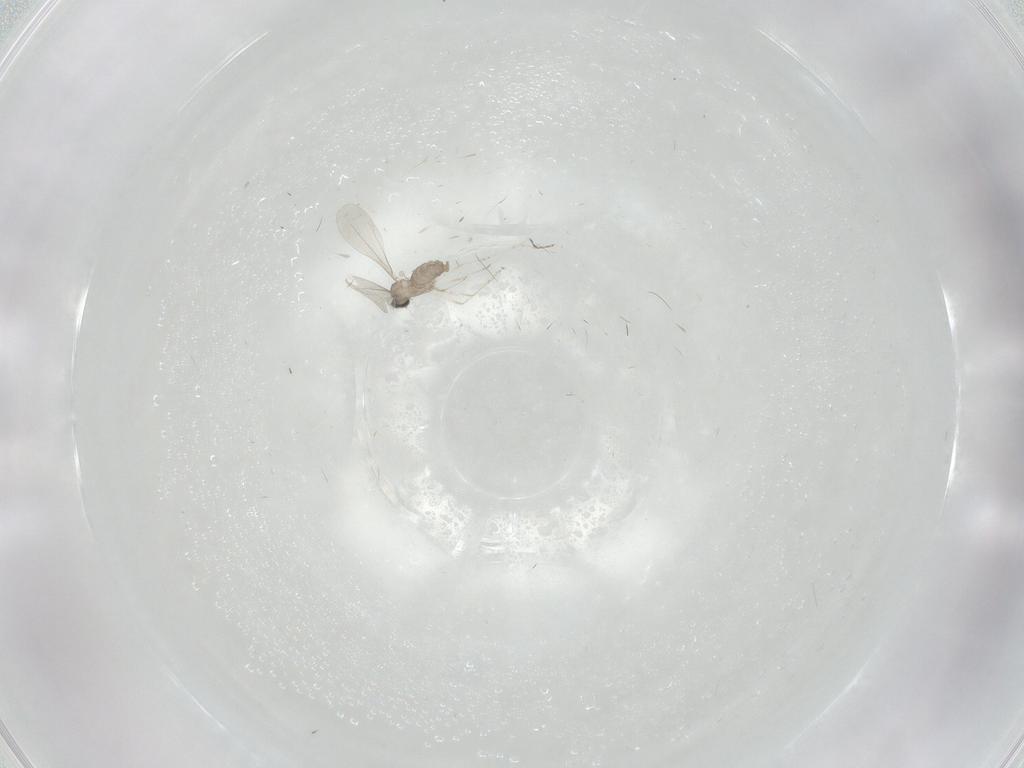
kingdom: Animalia
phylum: Arthropoda
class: Insecta
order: Diptera
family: Cecidomyiidae
